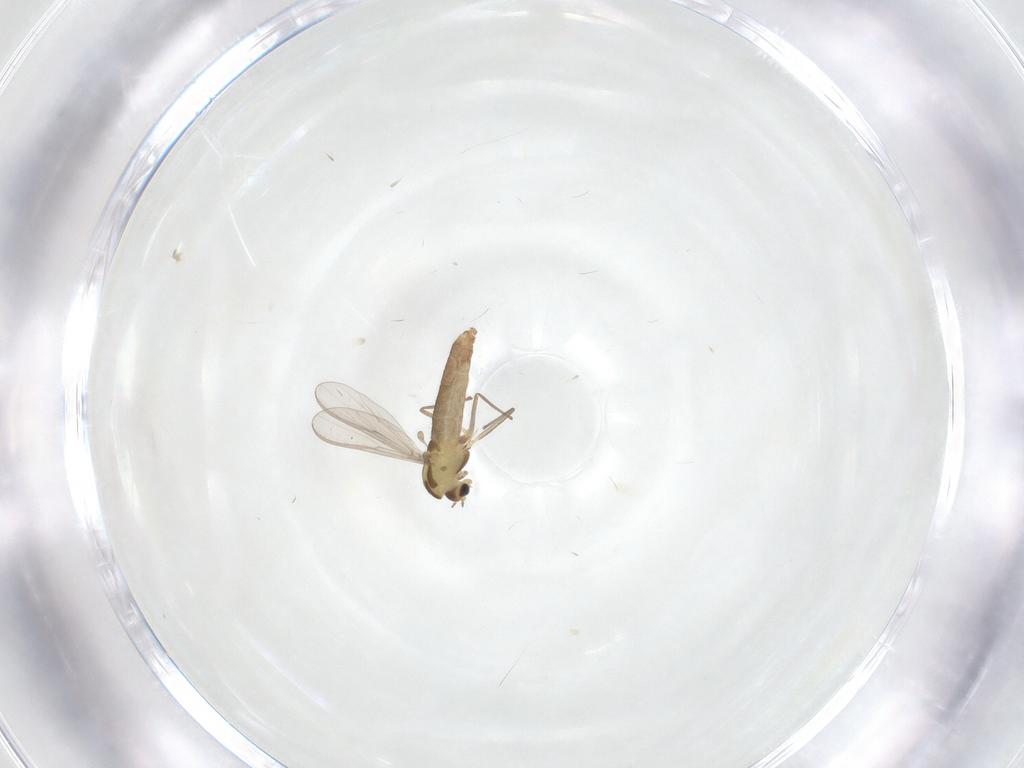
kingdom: Animalia
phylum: Arthropoda
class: Insecta
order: Diptera
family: Chironomidae
